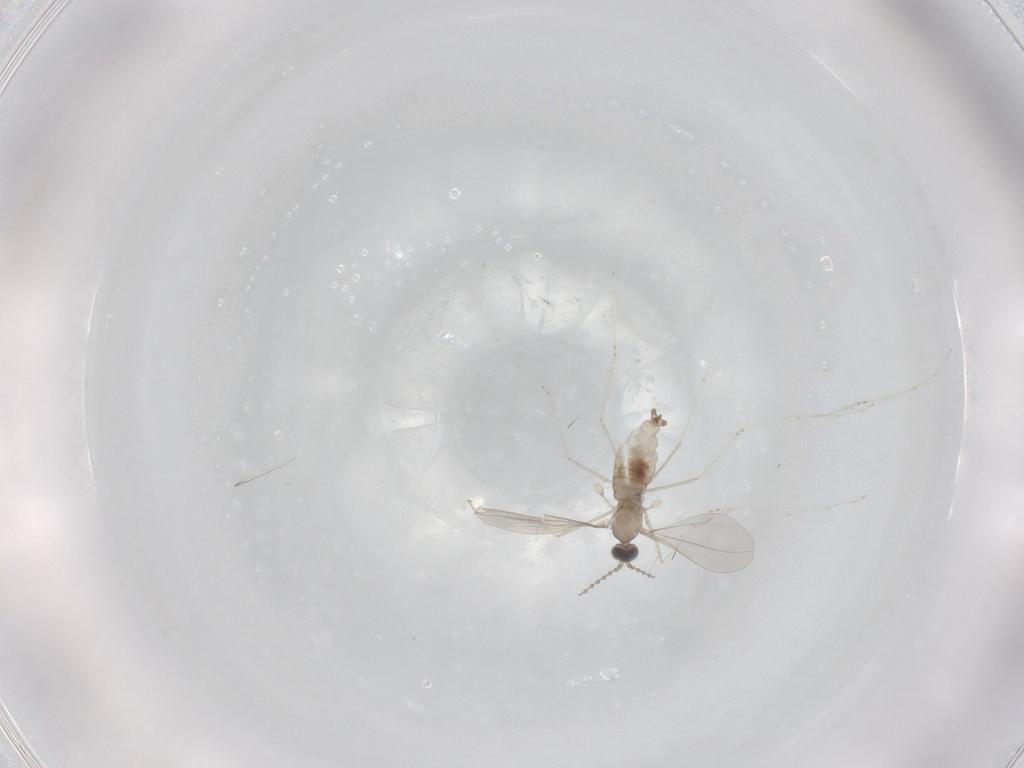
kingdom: Animalia
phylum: Arthropoda
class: Insecta
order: Diptera
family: Cecidomyiidae
